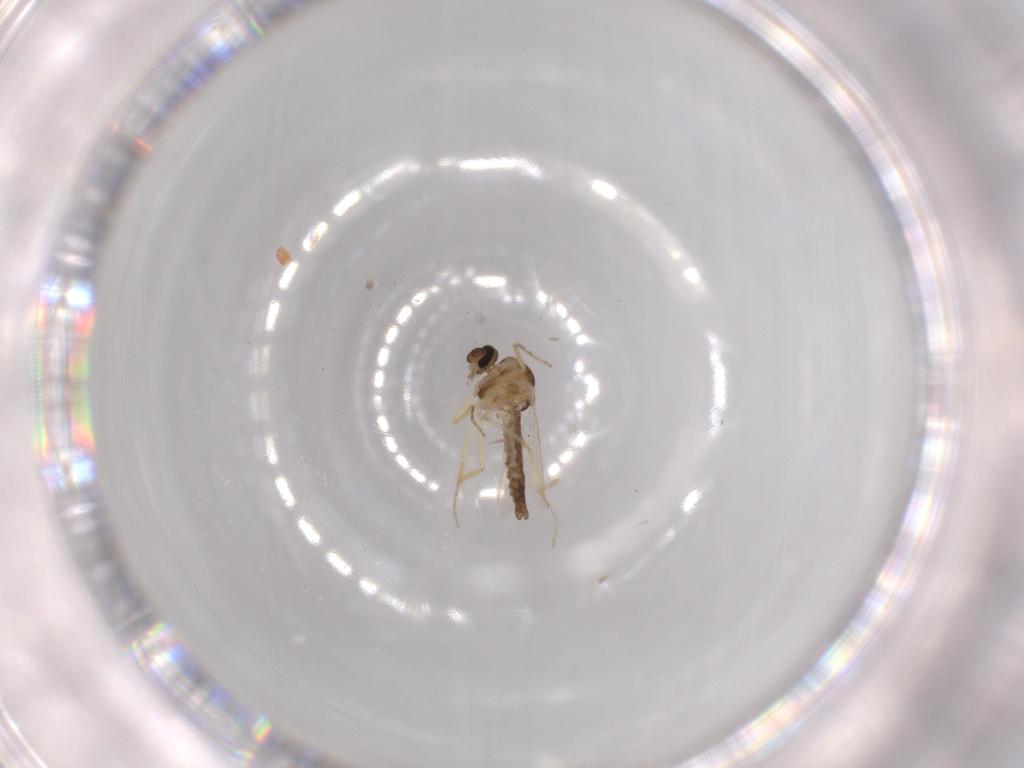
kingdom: Animalia
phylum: Arthropoda
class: Insecta
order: Diptera
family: Ceratopogonidae
